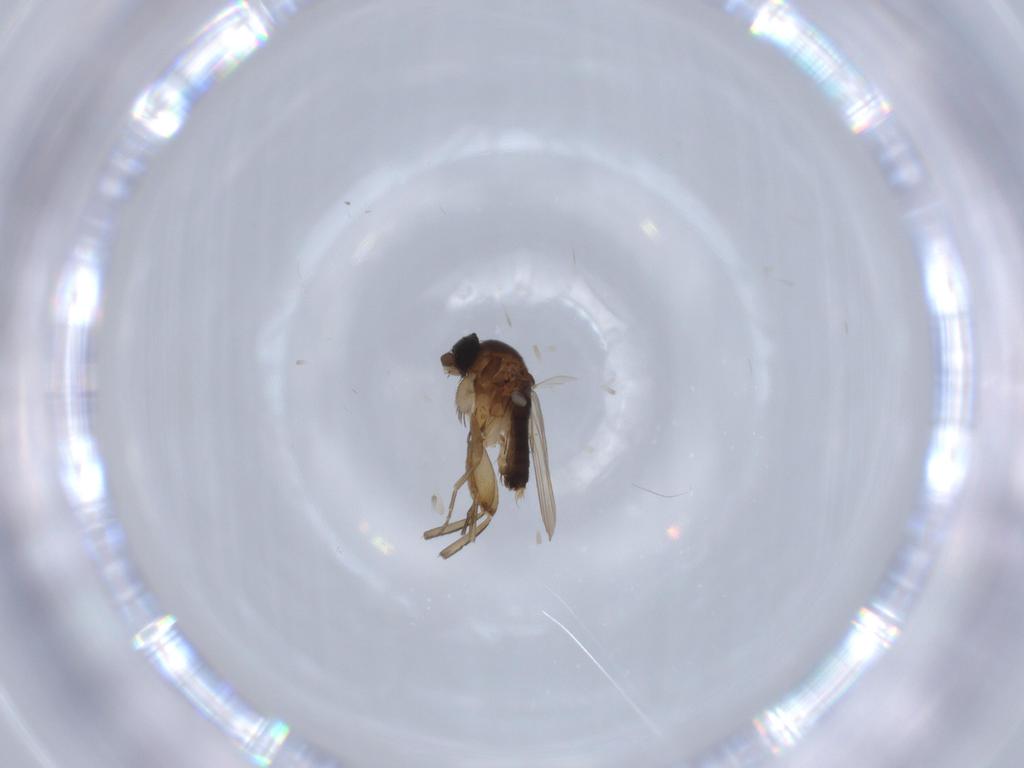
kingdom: Animalia
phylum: Arthropoda
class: Insecta
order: Diptera
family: Phoridae
